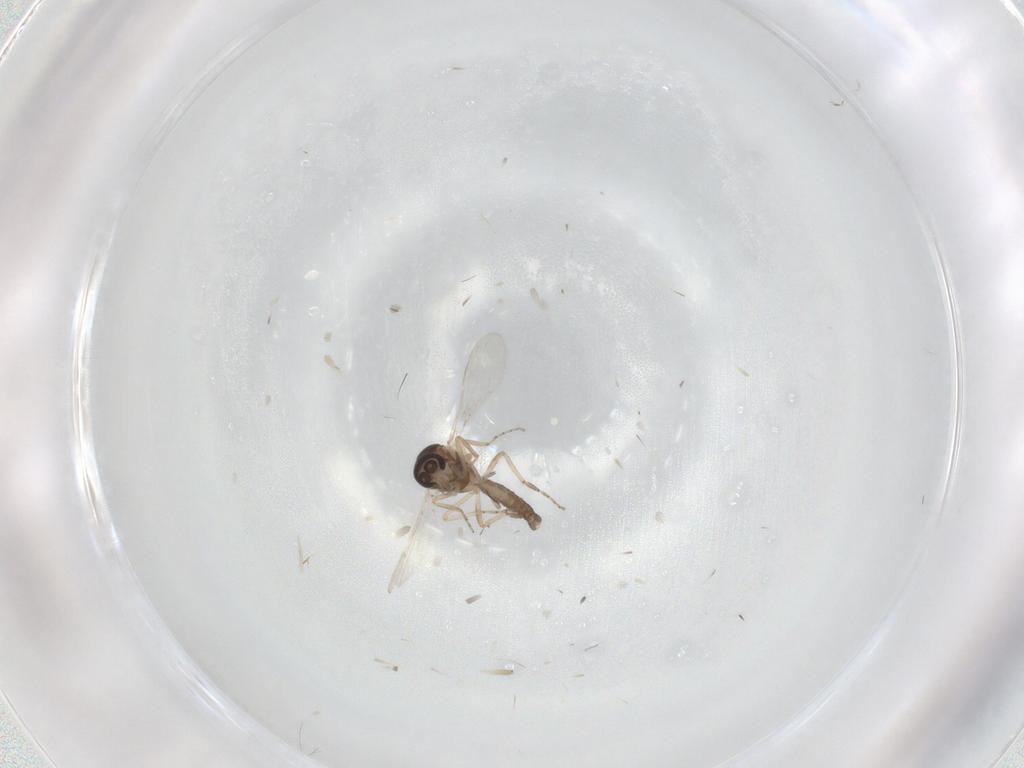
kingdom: Animalia
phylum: Arthropoda
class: Insecta
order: Diptera
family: Ceratopogonidae
